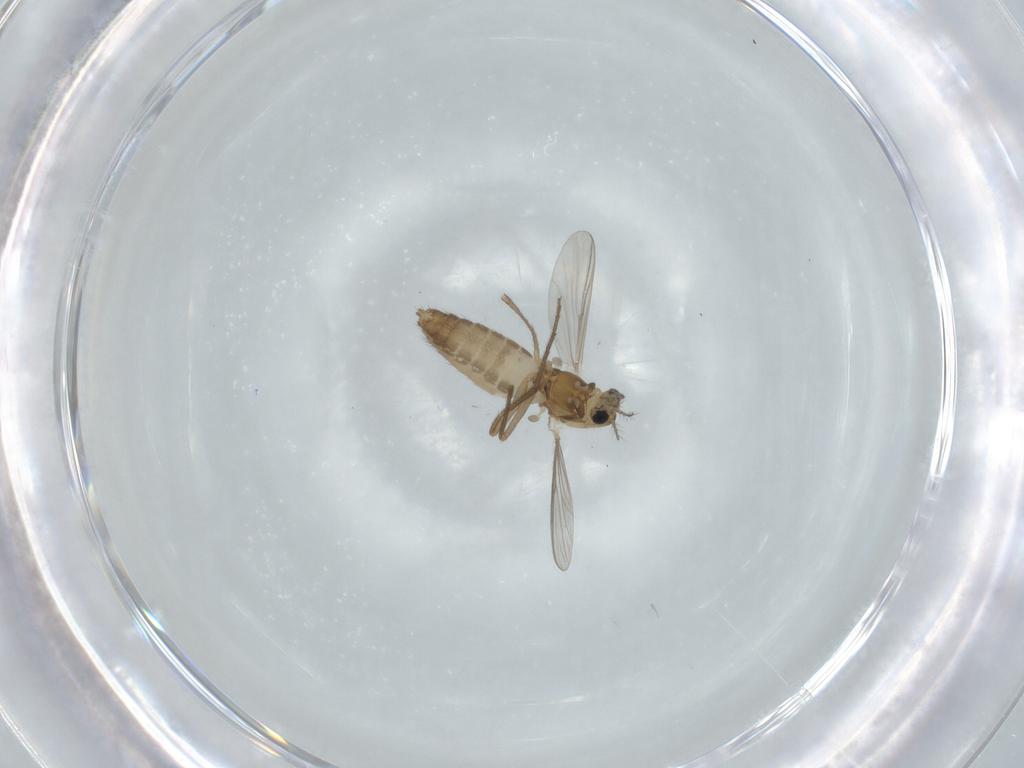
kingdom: Animalia
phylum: Arthropoda
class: Insecta
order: Diptera
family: Chironomidae
